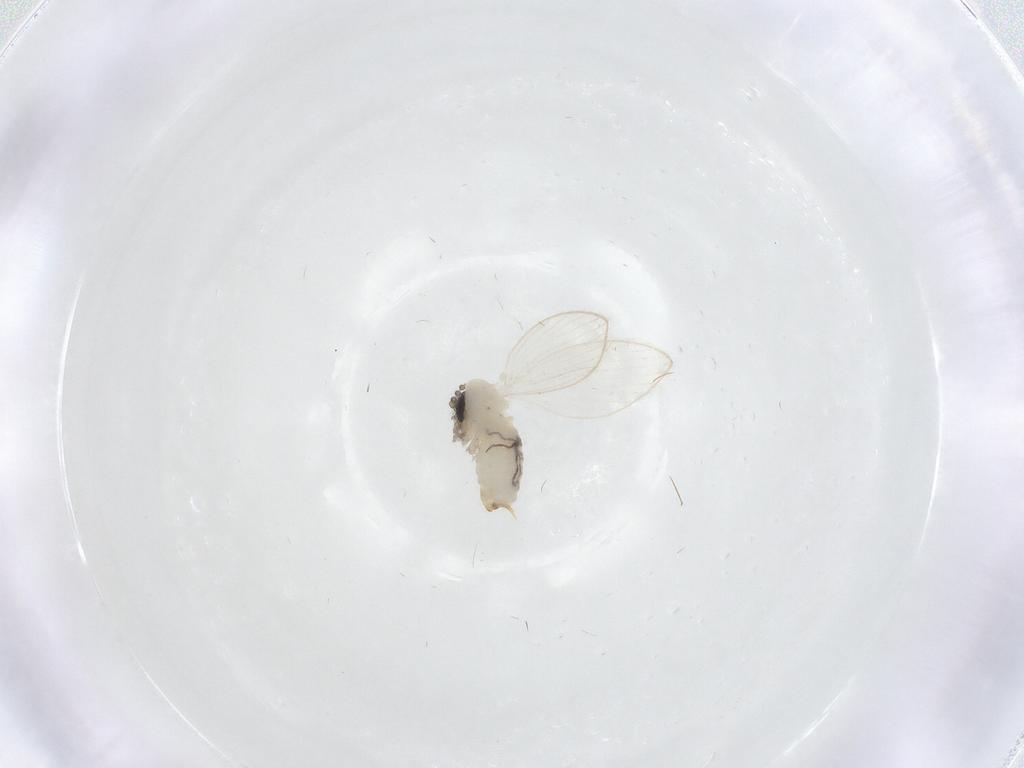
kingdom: Animalia
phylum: Arthropoda
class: Insecta
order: Diptera
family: Psychodidae
